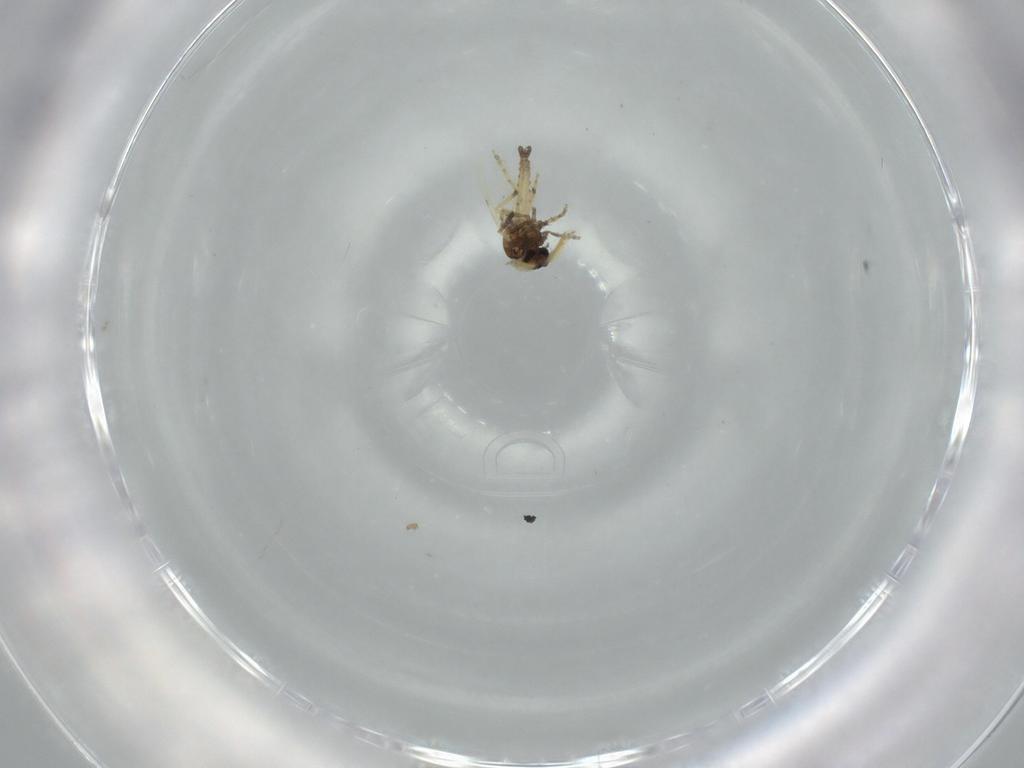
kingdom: Animalia
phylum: Arthropoda
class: Insecta
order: Diptera
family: Ceratopogonidae
